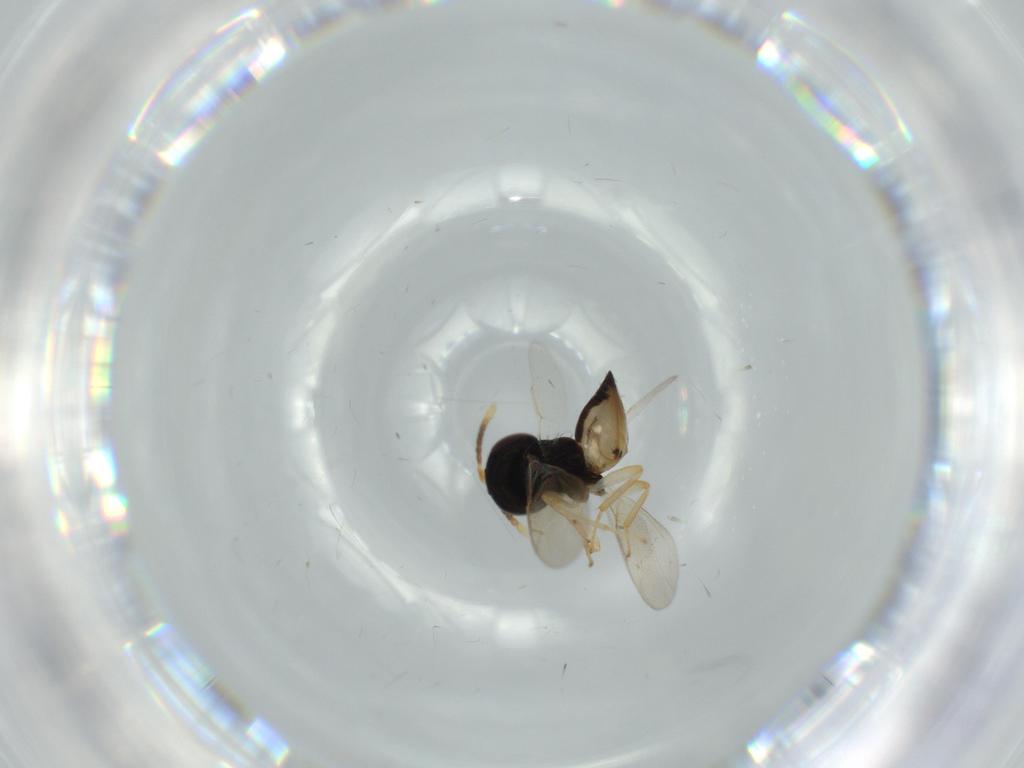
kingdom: Animalia
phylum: Arthropoda
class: Insecta
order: Hymenoptera
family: Pteromalidae
